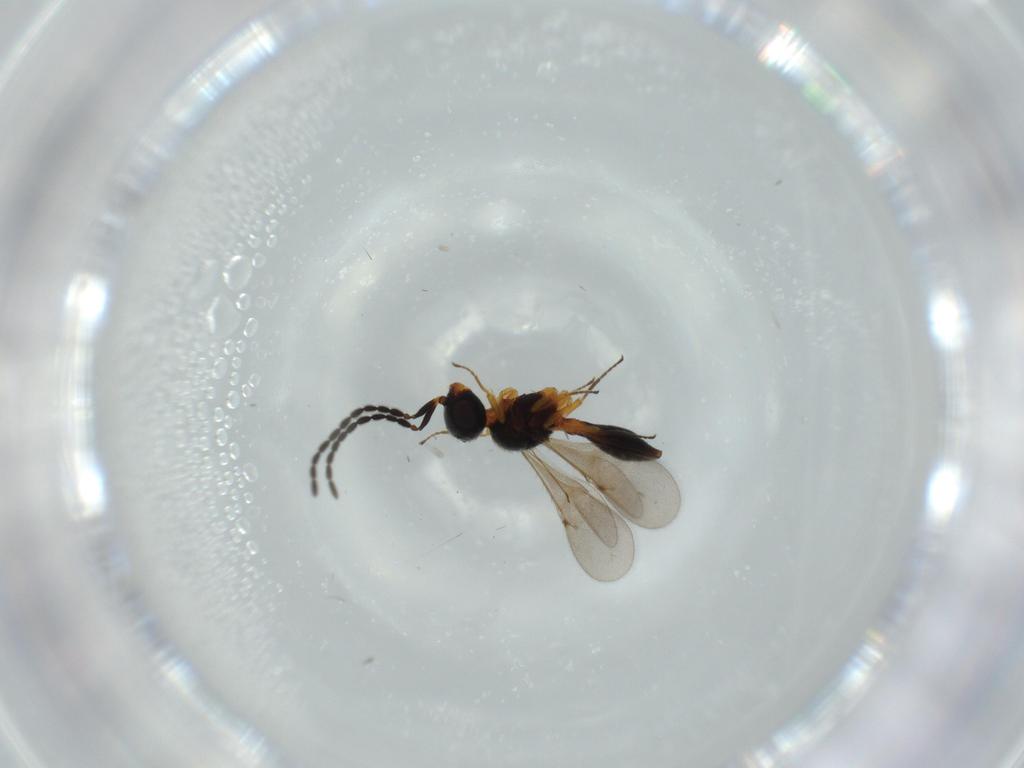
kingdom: Animalia
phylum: Arthropoda
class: Insecta
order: Hymenoptera
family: Scelionidae
